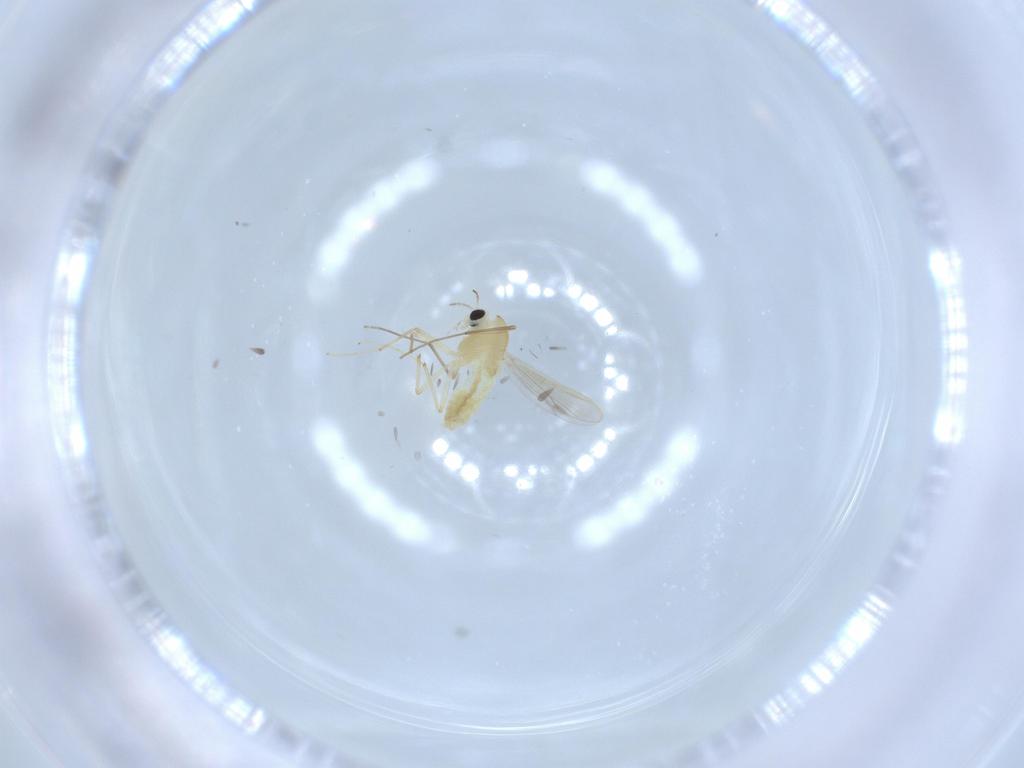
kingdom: Animalia
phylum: Arthropoda
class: Insecta
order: Diptera
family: Chironomidae
